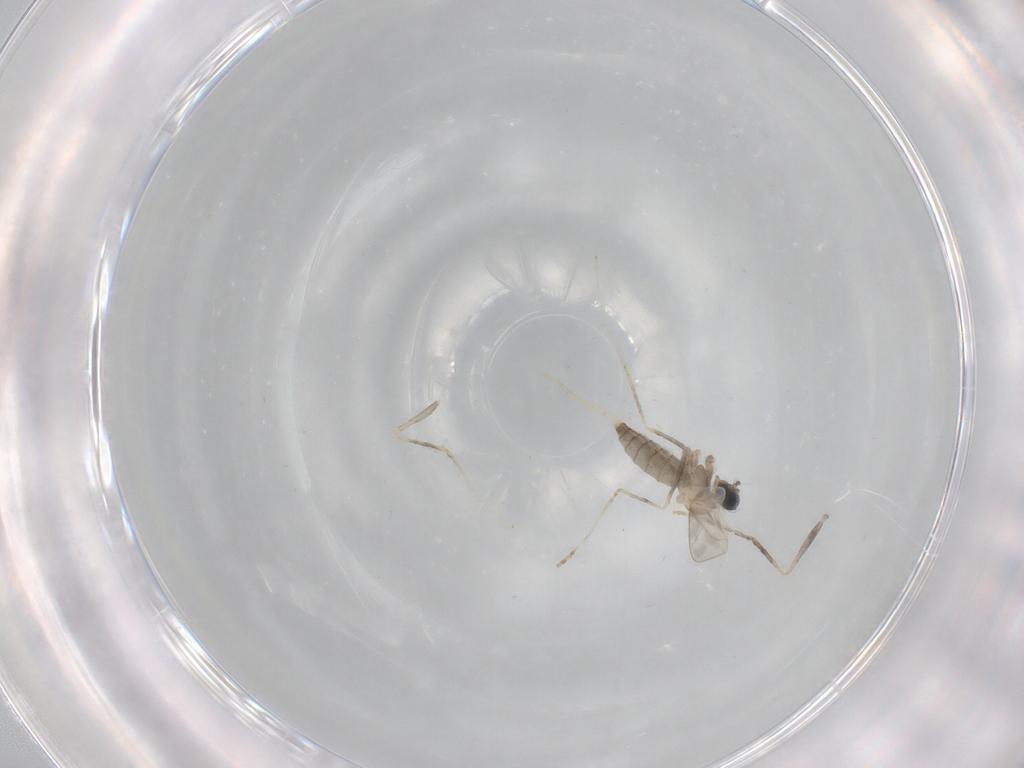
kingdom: Animalia
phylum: Arthropoda
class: Insecta
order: Diptera
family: Cecidomyiidae
